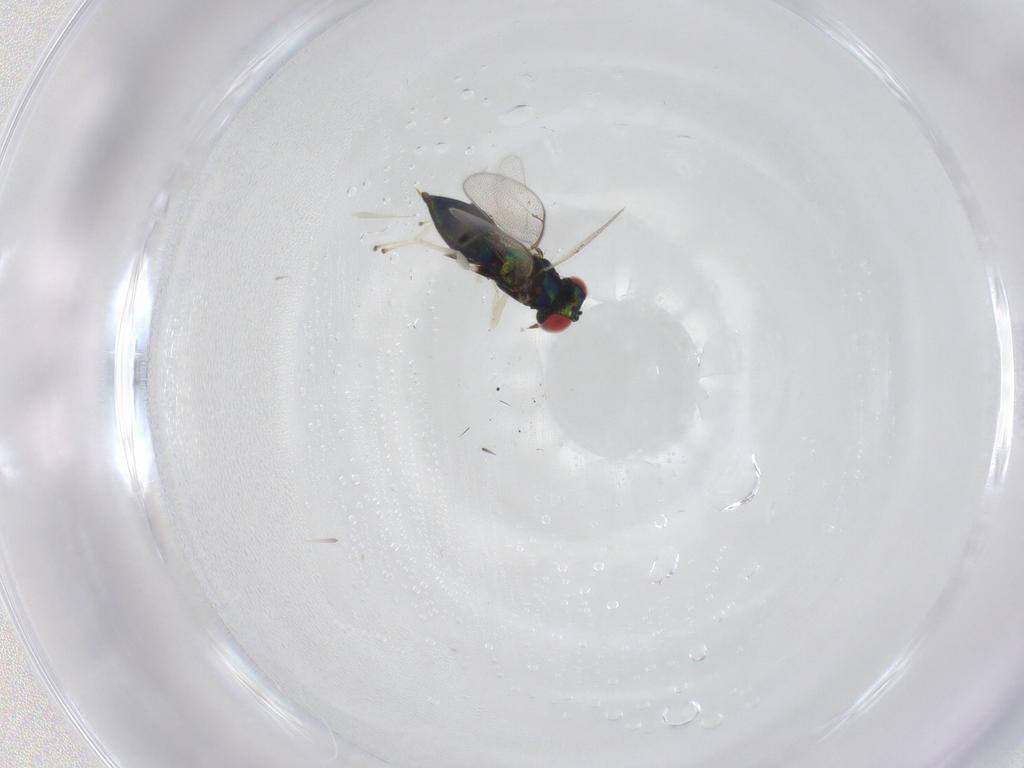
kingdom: Animalia
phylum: Arthropoda
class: Insecta
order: Hymenoptera
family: Eulophidae
